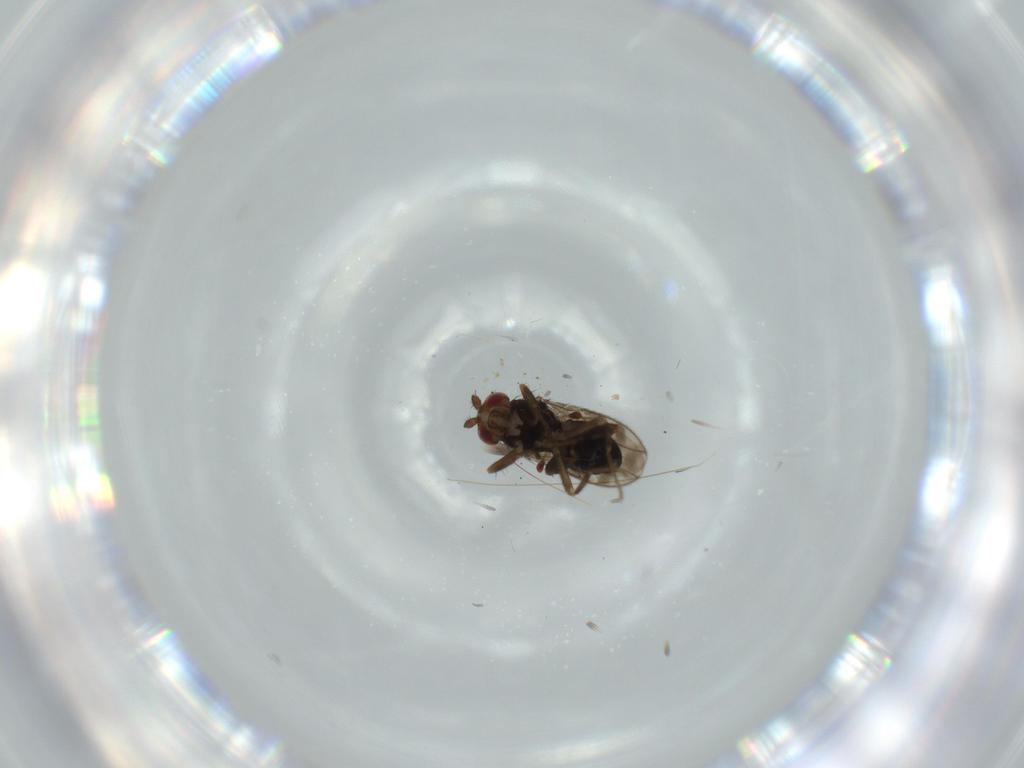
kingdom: Animalia
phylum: Arthropoda
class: Insecta
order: Diptera
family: Sphaeroceridae
